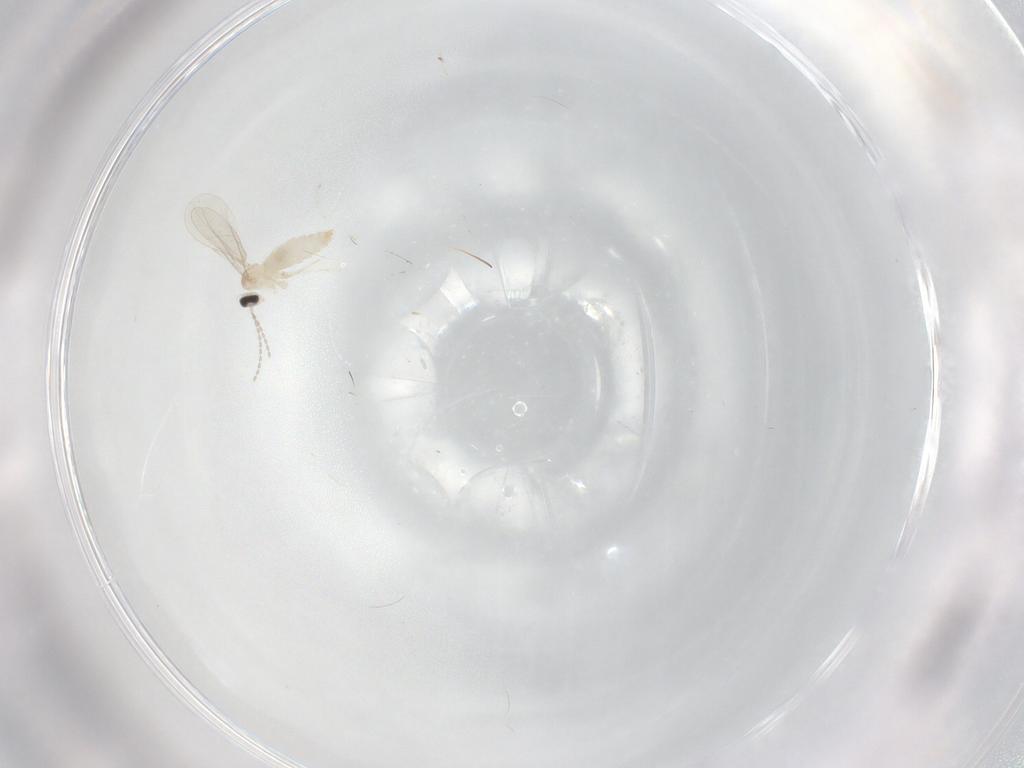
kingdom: Animalia
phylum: Arthropoda
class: Insecta
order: Diptera
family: Cecidomyiidae
